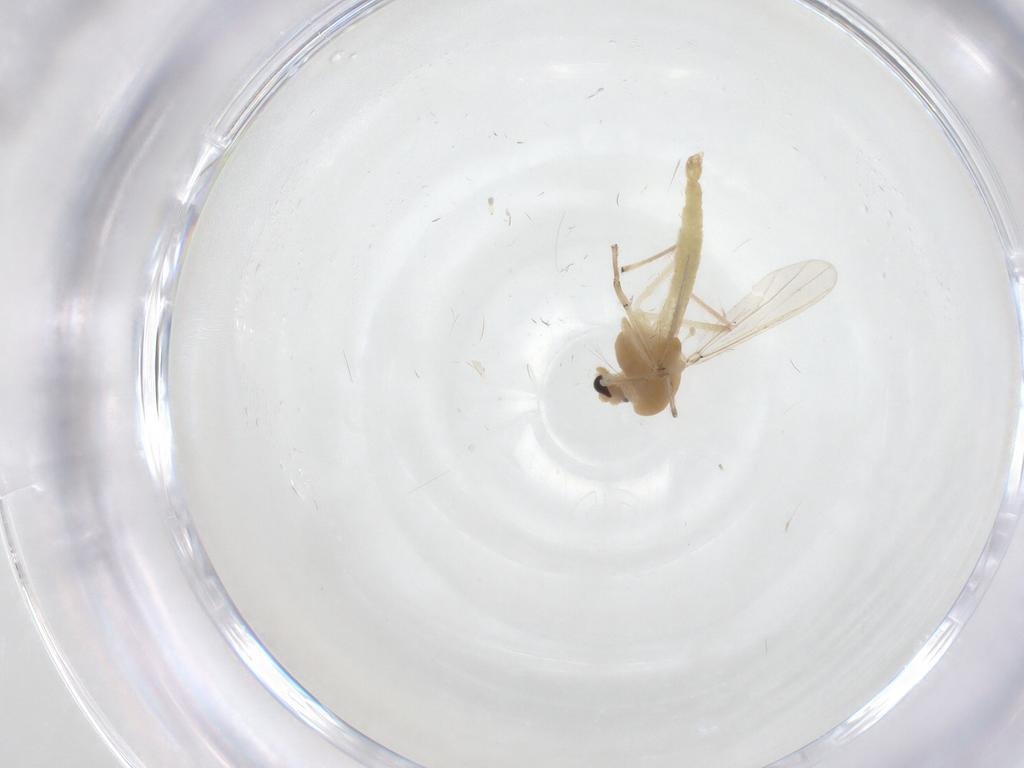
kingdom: Animalia
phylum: Arthropoda
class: Insecta
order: Diptera
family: Chironomidae
